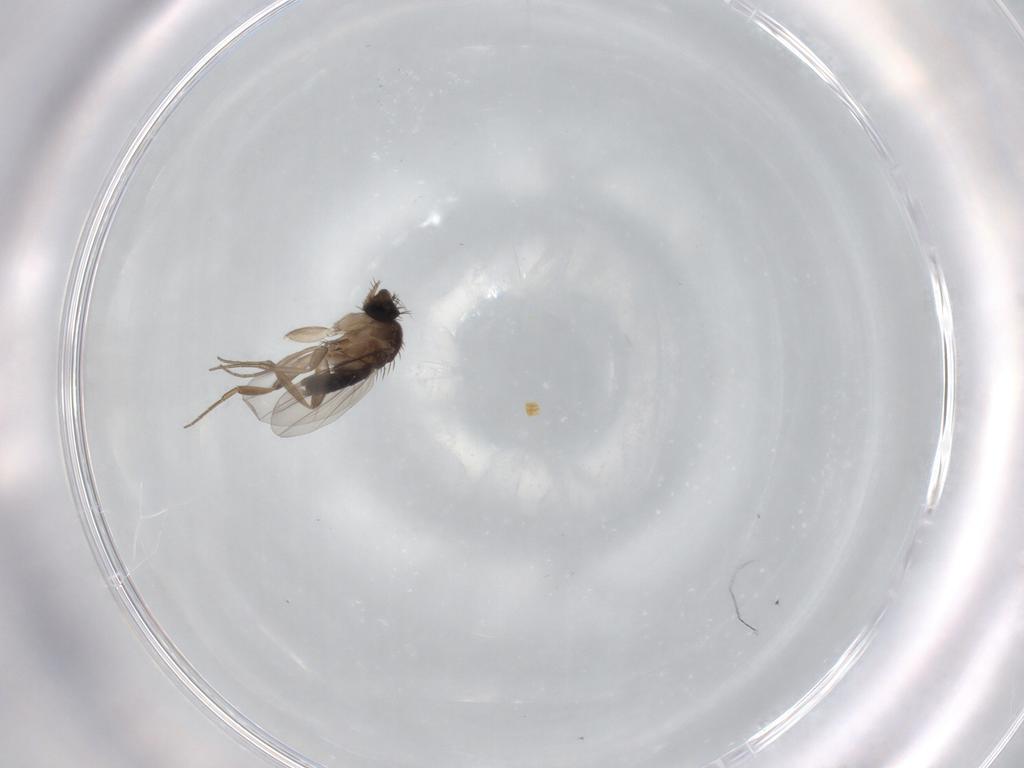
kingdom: Animalia
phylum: Arthropoda
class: Insecta
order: Diptera
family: Phoridae
